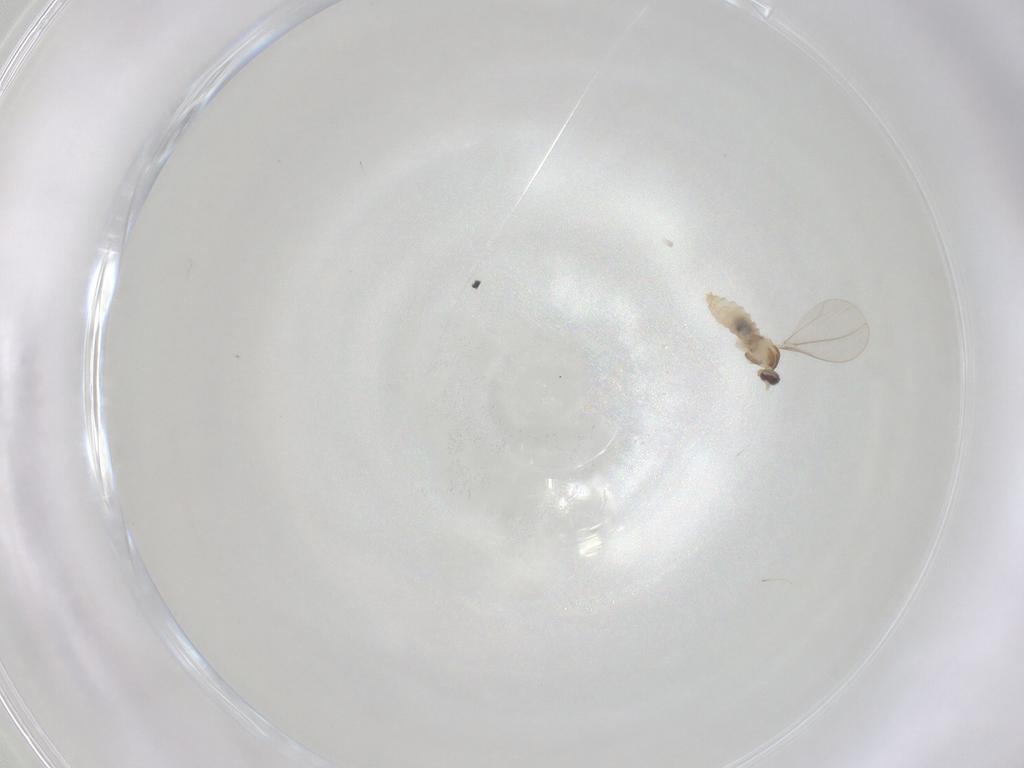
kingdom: Animalia
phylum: Arthropoda
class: Insecta
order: Diptera
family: Cecidomyiidae
